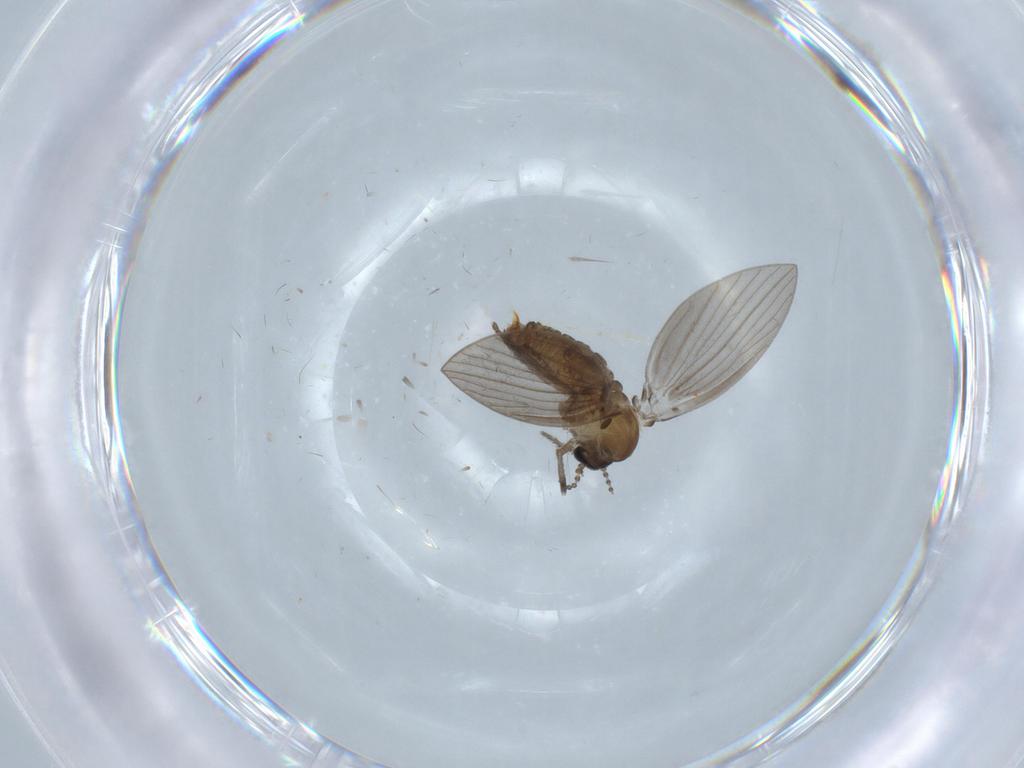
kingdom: Animalia
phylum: Arthropoda
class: Insecta
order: Diptera
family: Psychodidae
